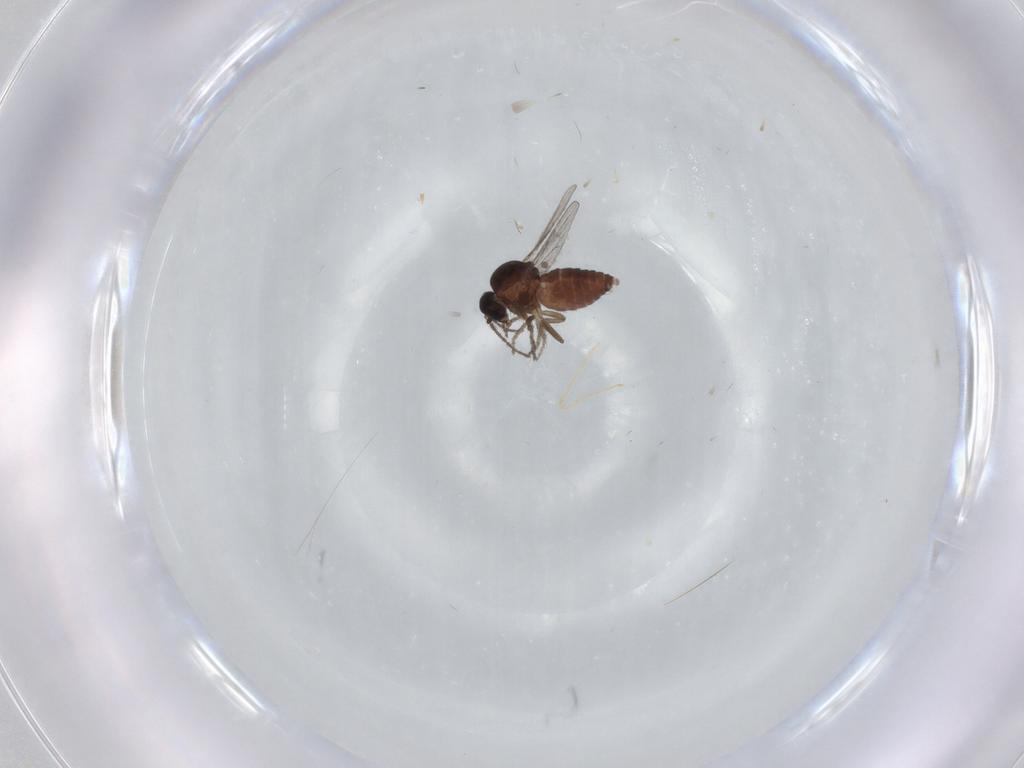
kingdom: Animalia
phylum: Arthropoda
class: Insecta
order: Diptera
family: Ceratopogonidae
